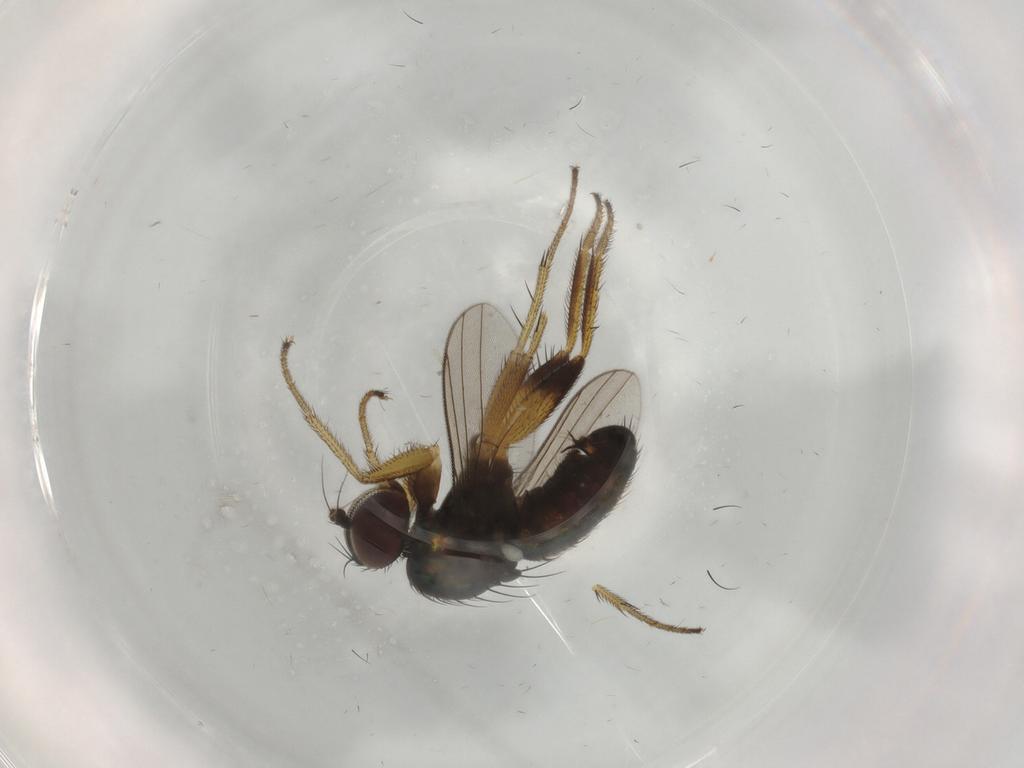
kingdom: Animalia
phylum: Arthropoda
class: Insecta
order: Diptera
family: Dolichopodidae
